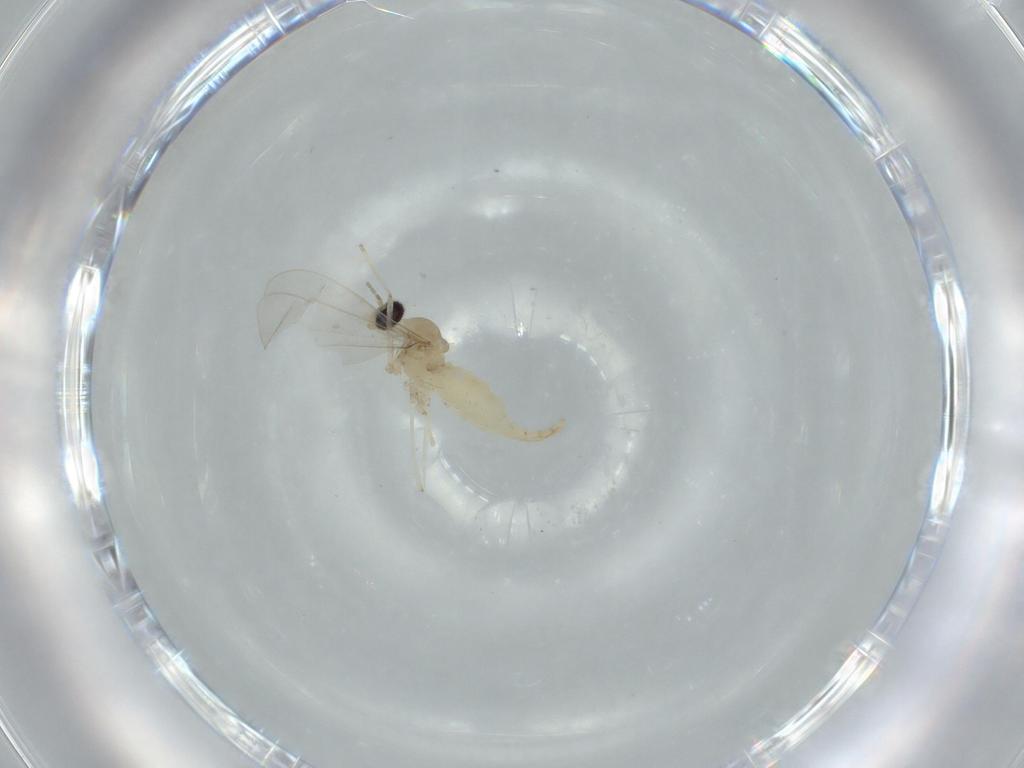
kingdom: Animalia
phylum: Arthropoda
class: Insecta
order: Diptera
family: Cecidomyiidae
